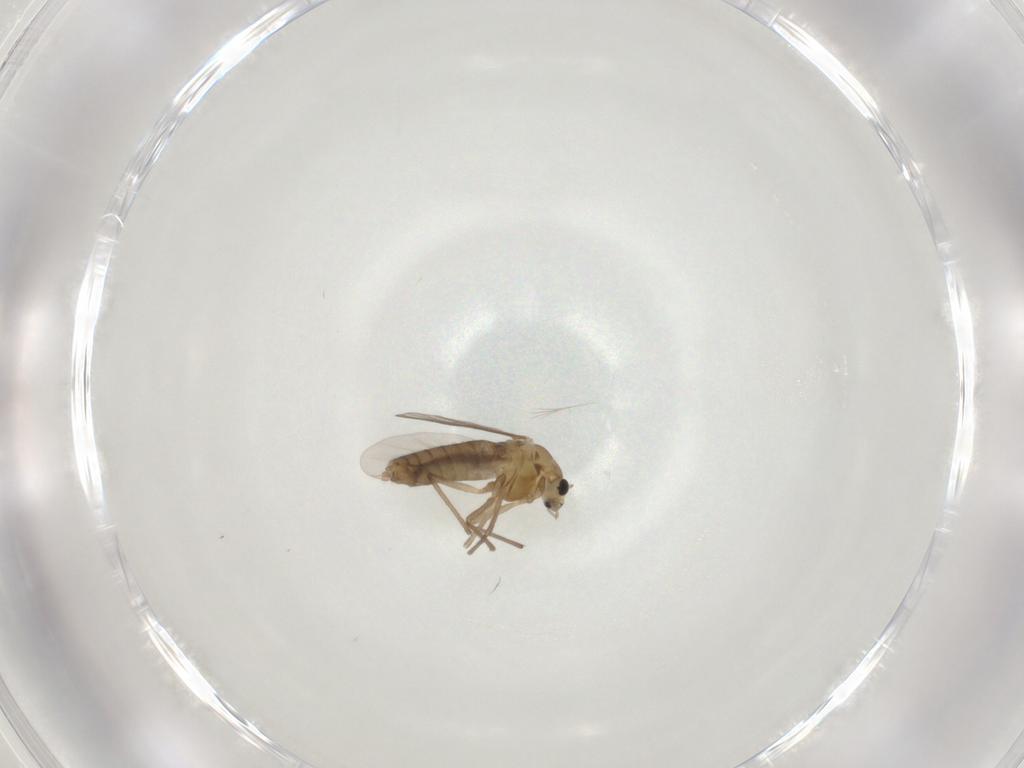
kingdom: Animalia
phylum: Arthropoda
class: Insecta
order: Diptera
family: Chironomidae
